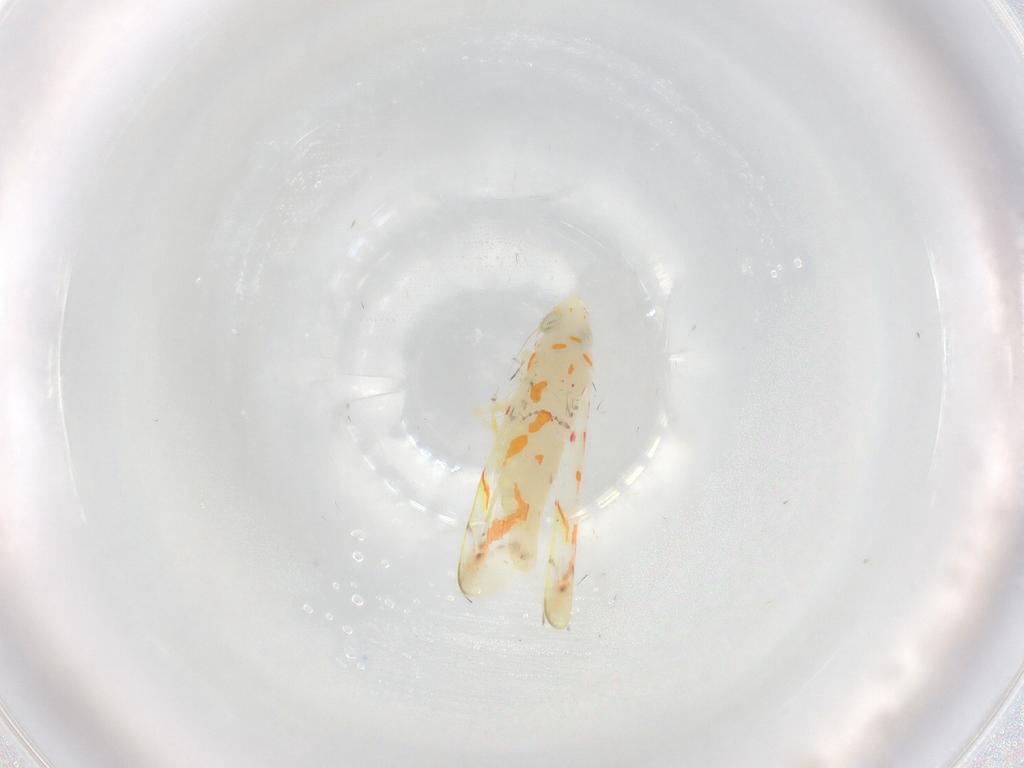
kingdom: Animalia
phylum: Arthropoda
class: Insecta
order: Hemiptera
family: Cicadellidae
